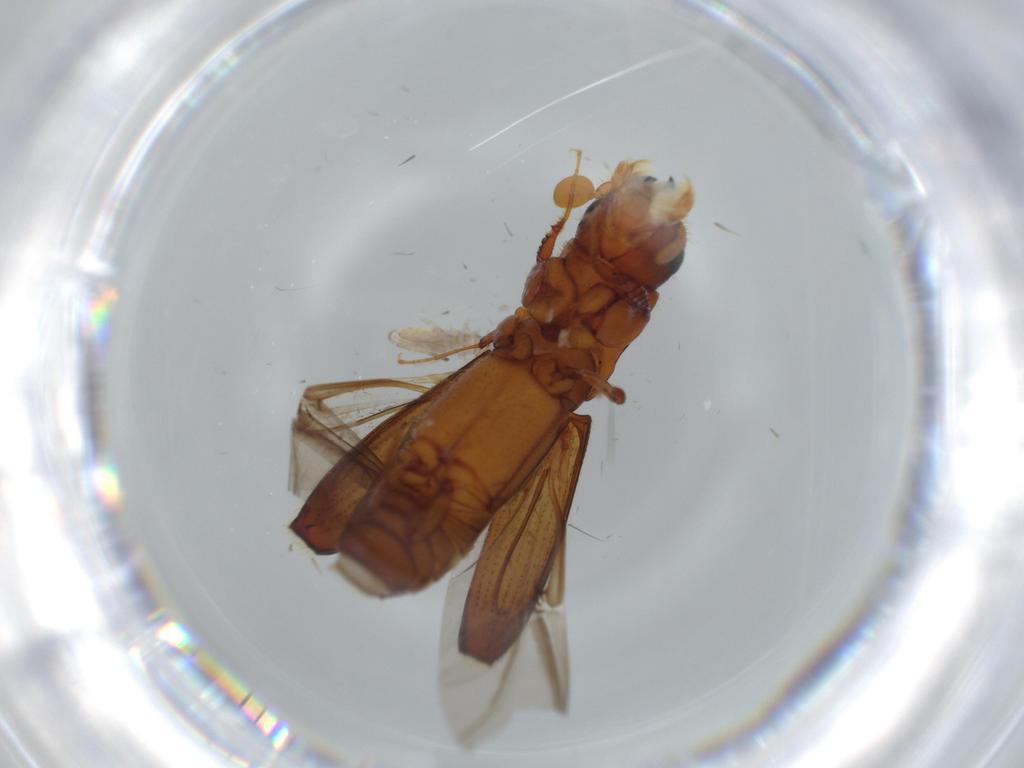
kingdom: Animalia
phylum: Arthropoda
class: Insecta
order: Coleoptera
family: Curculionidae
